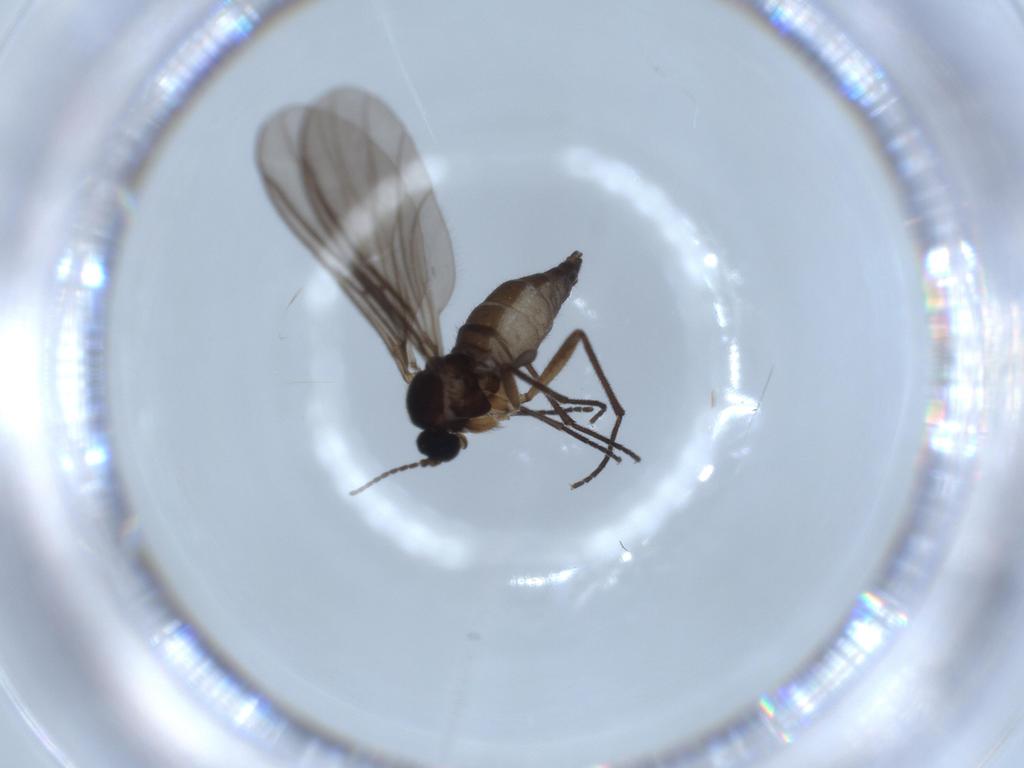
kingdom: Animalia
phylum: Arthropoda
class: Insecta
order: Diptera
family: Sciaridae
